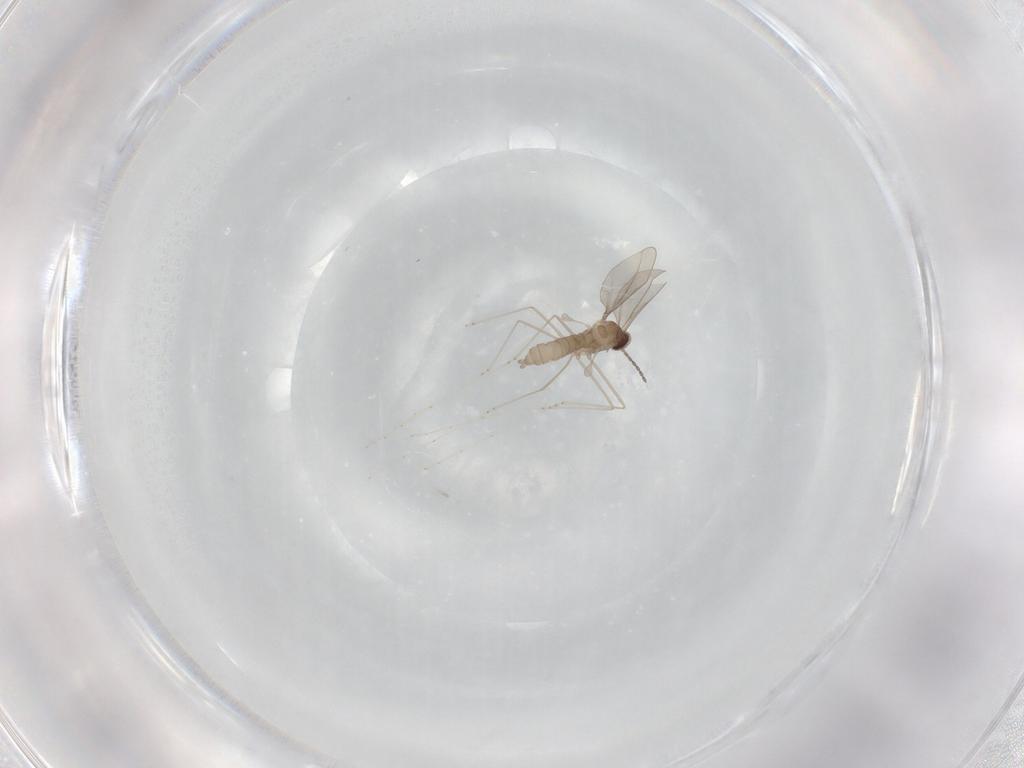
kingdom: Animalia
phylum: Arthropoda
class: Insecta
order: Diptera
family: Cecidomyiidae
